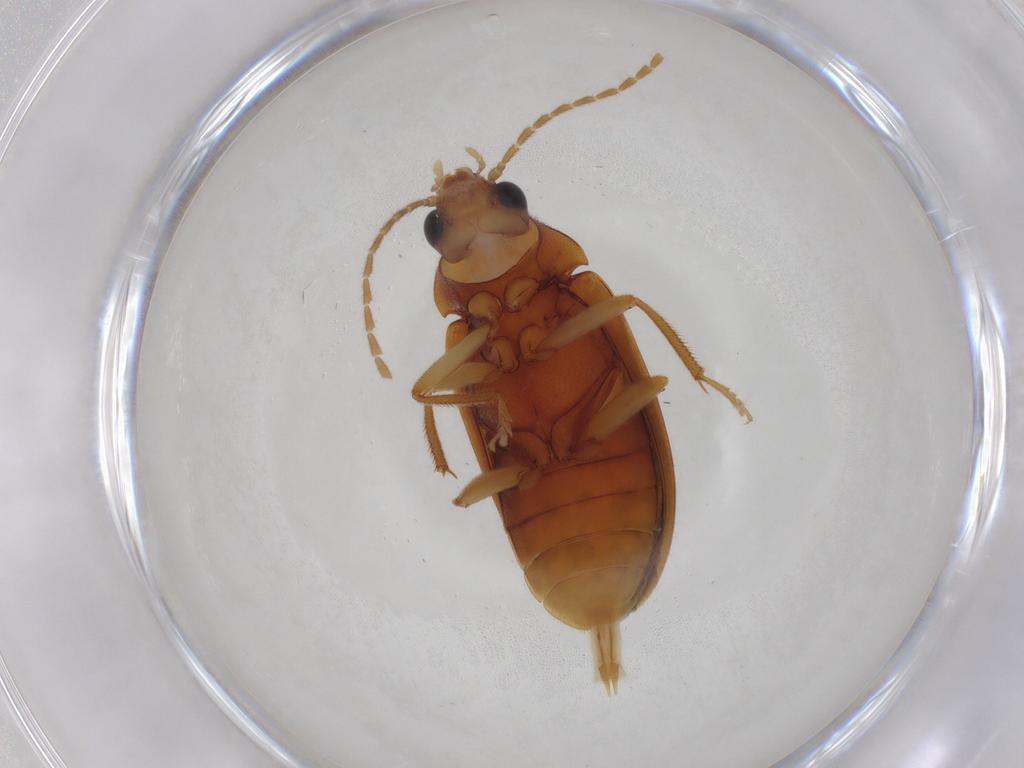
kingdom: Animalia
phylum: Arthropoda
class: Insecta
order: Coleoptera
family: Ptilodactylidae
